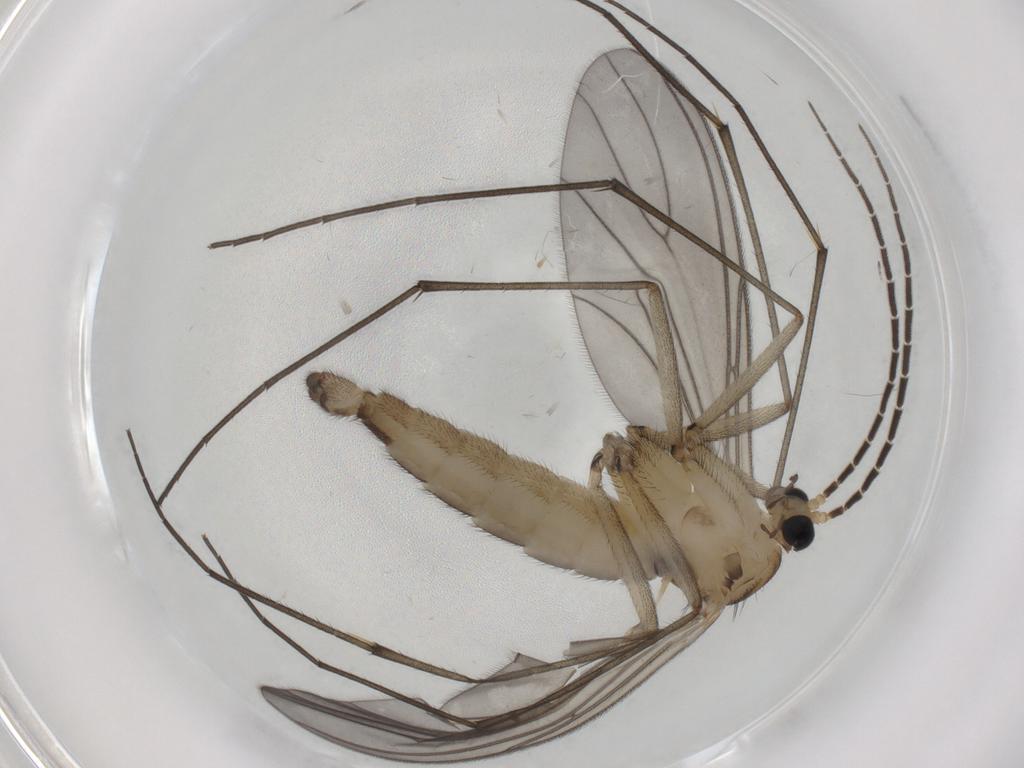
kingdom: Animalia
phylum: Arthropoda
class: Insecta
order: Diptera
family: Sciaridae
